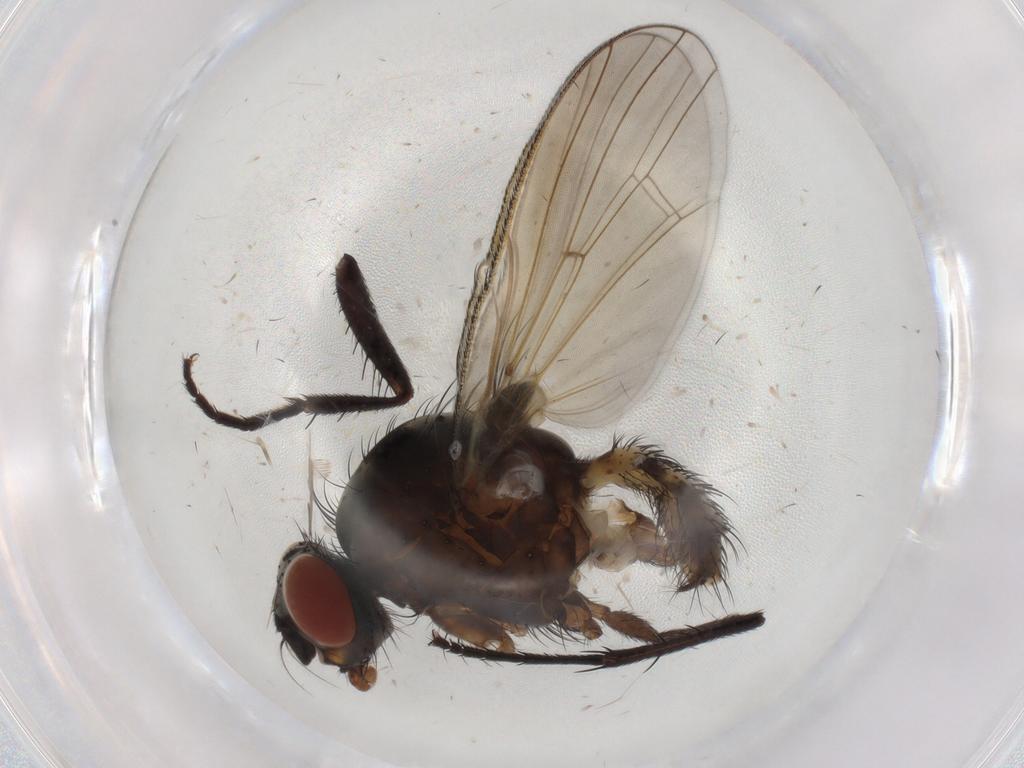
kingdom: Animalia
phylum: Arthropoda
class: Insecta
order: Diptera
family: Anthomyiidae
